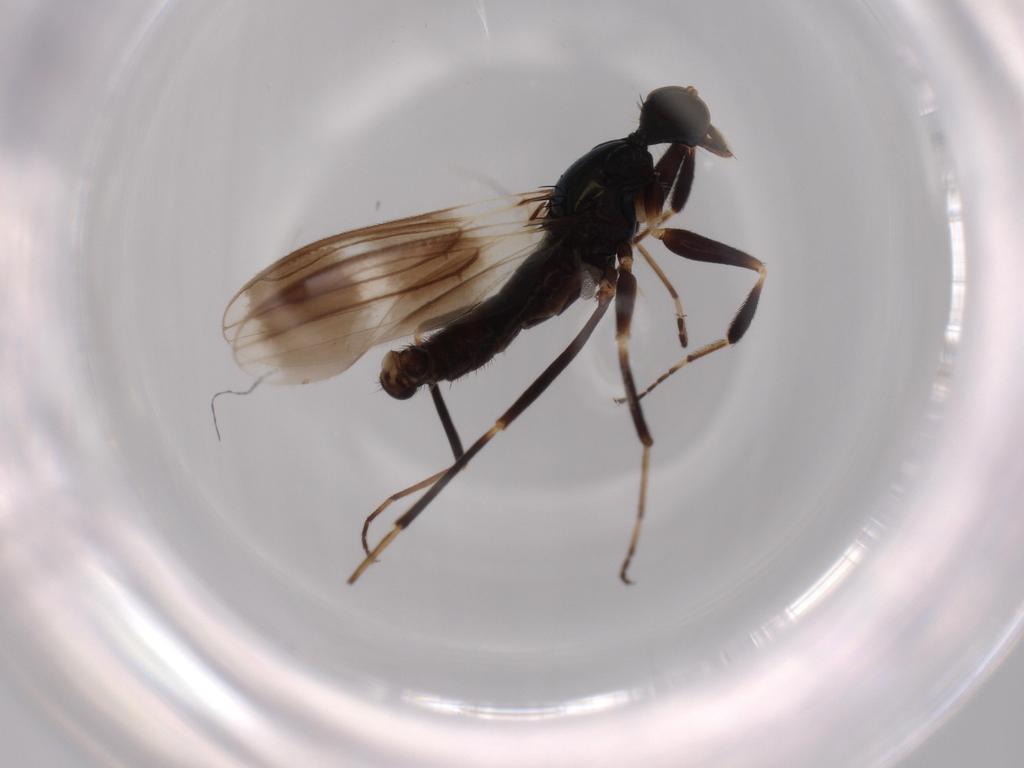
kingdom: Animalia
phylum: Arthropoda
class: Insecta
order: Diptera
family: Hybotidae
